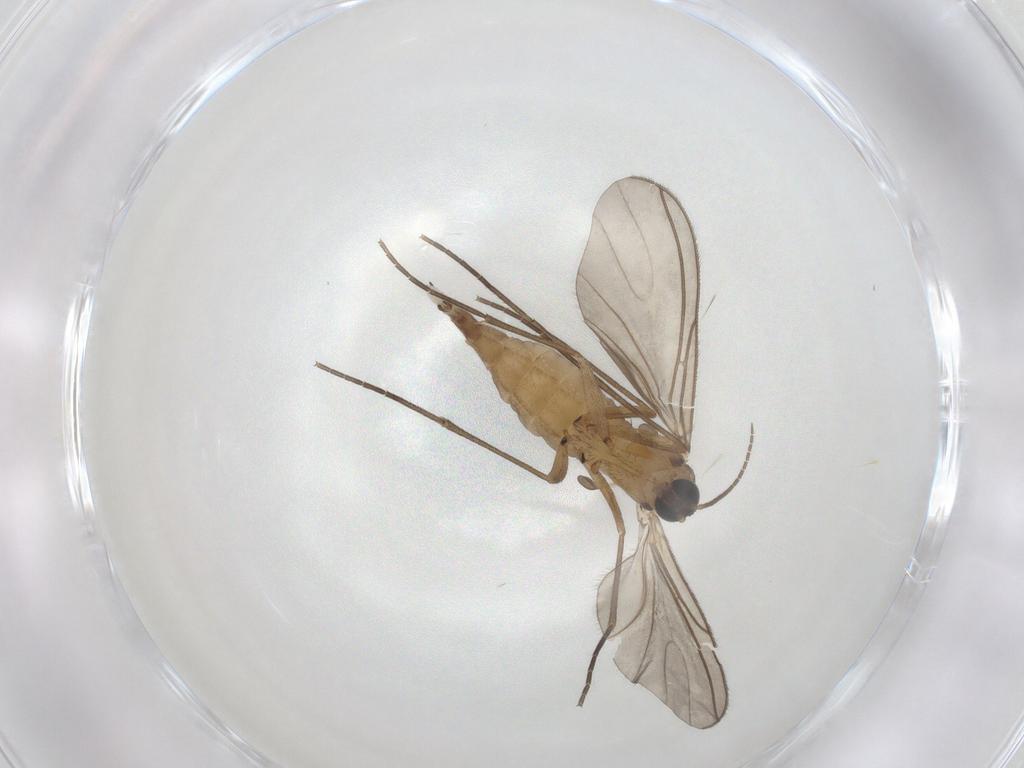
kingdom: Animalia
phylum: Arthropoda
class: Insecta
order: Diptera
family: Sciaridae
